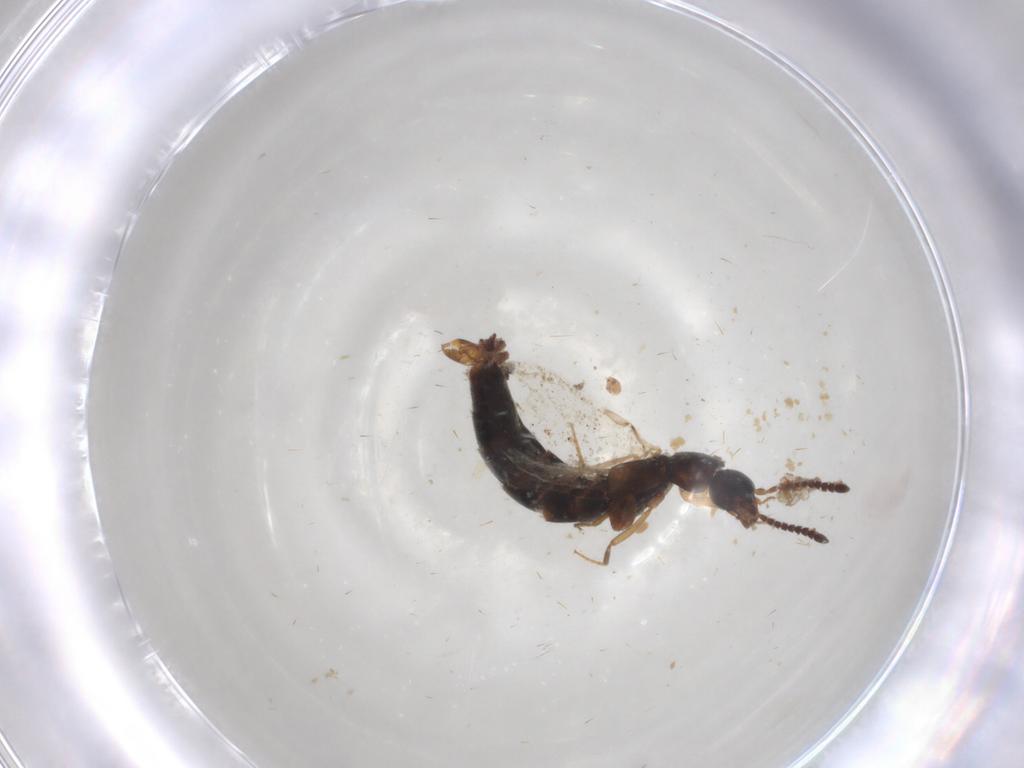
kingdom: Animalia
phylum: Arthropoda
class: Insecta
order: Coleoptera
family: Staphylinidae
